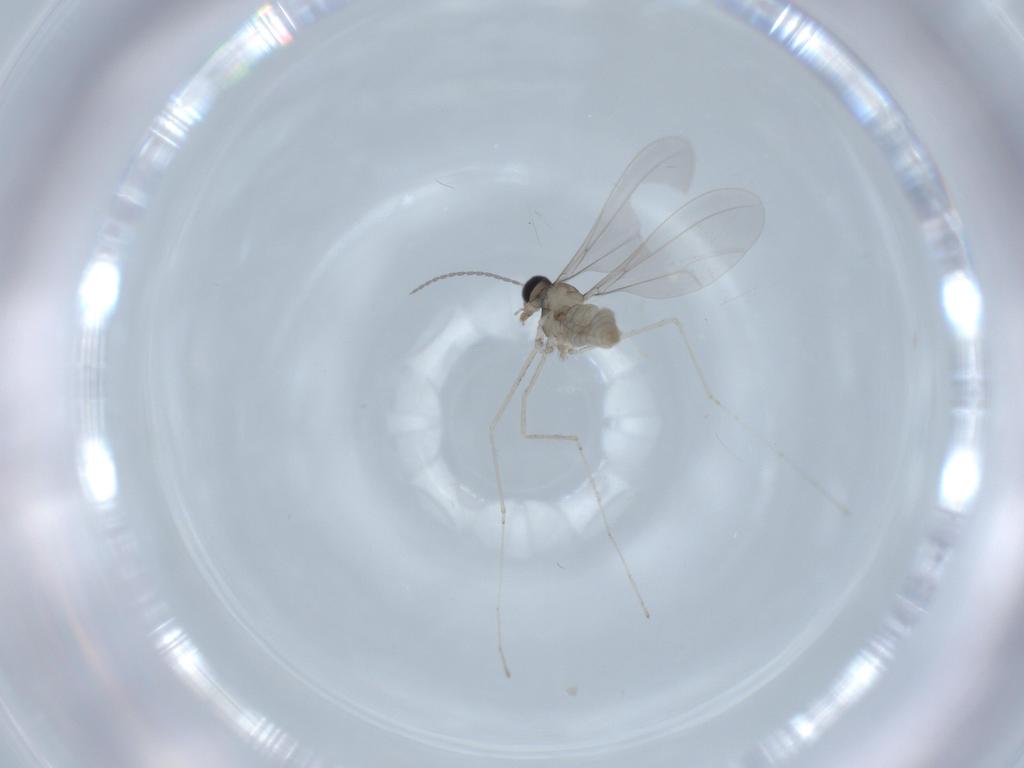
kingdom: Animalia
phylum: Arthropoda
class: Insecta
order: Diptera
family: Cecidomyiidae
